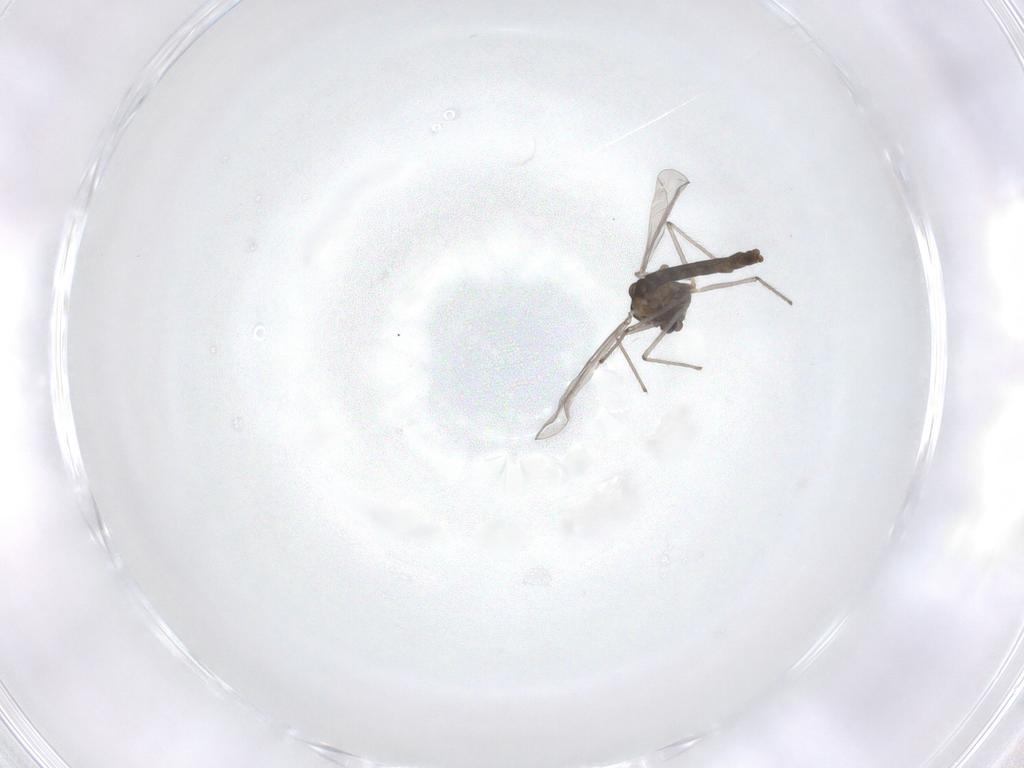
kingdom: Animalia
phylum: Arthropoda
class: Insecta
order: Diptera
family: Chironomidae
